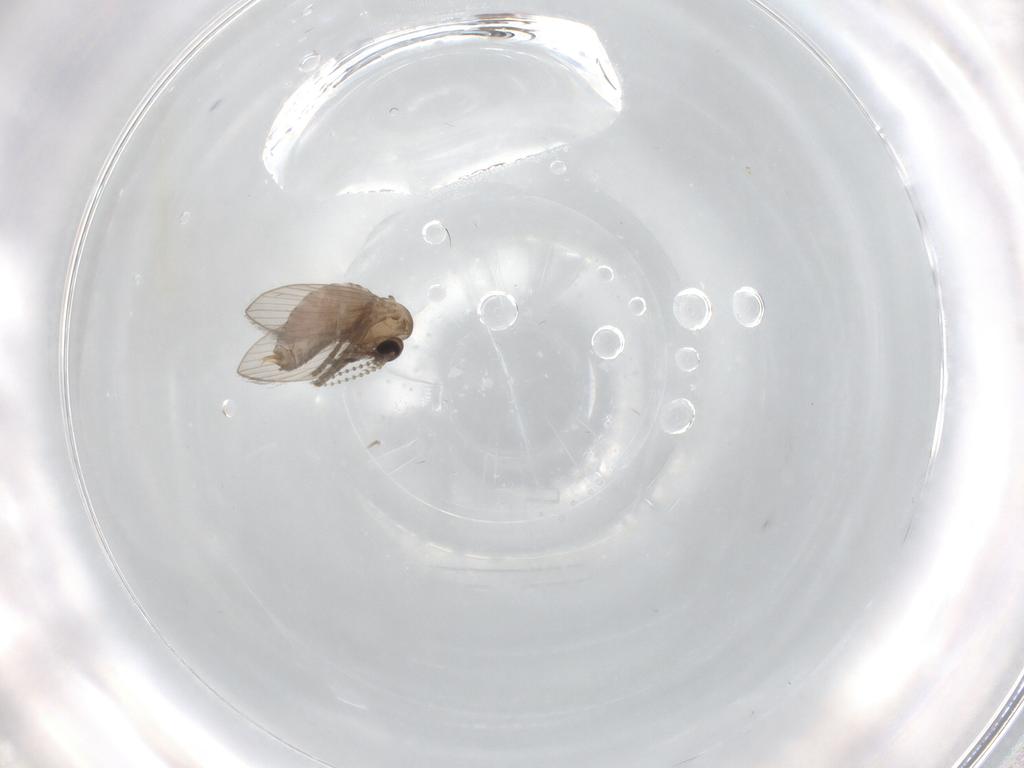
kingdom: Animalia
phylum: Arthropoda
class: Insecta
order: Diptera
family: Psychodidae
